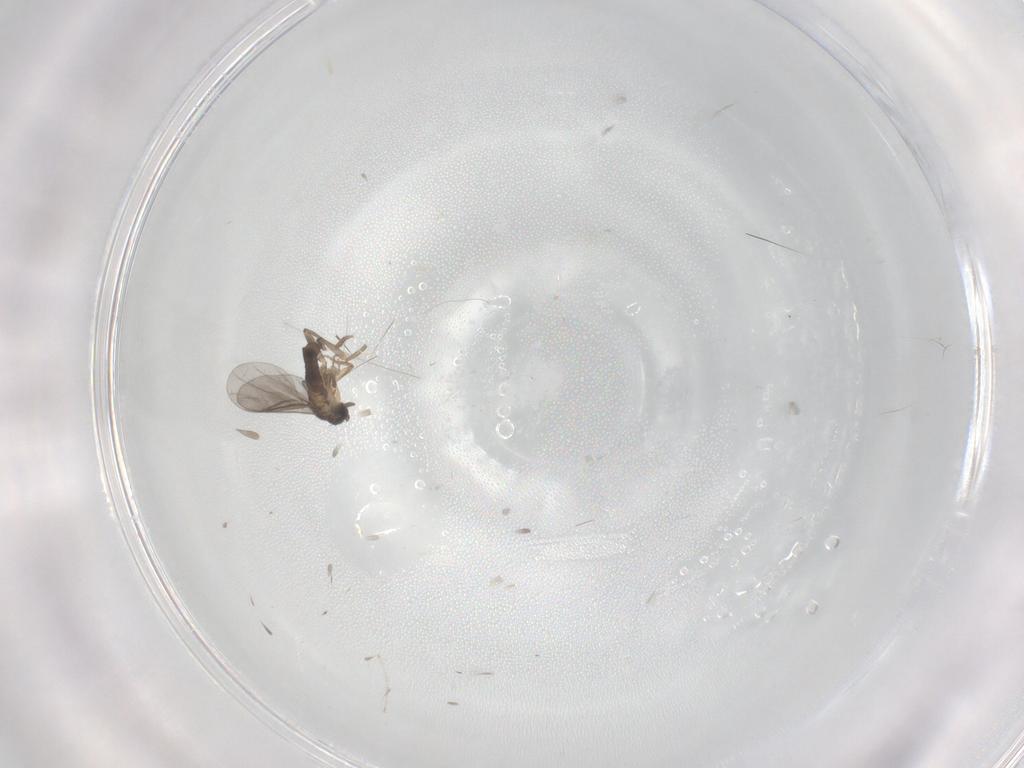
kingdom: Animalia
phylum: Arthropoda
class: Insecta
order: Diptera
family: Cecidomyiidae
